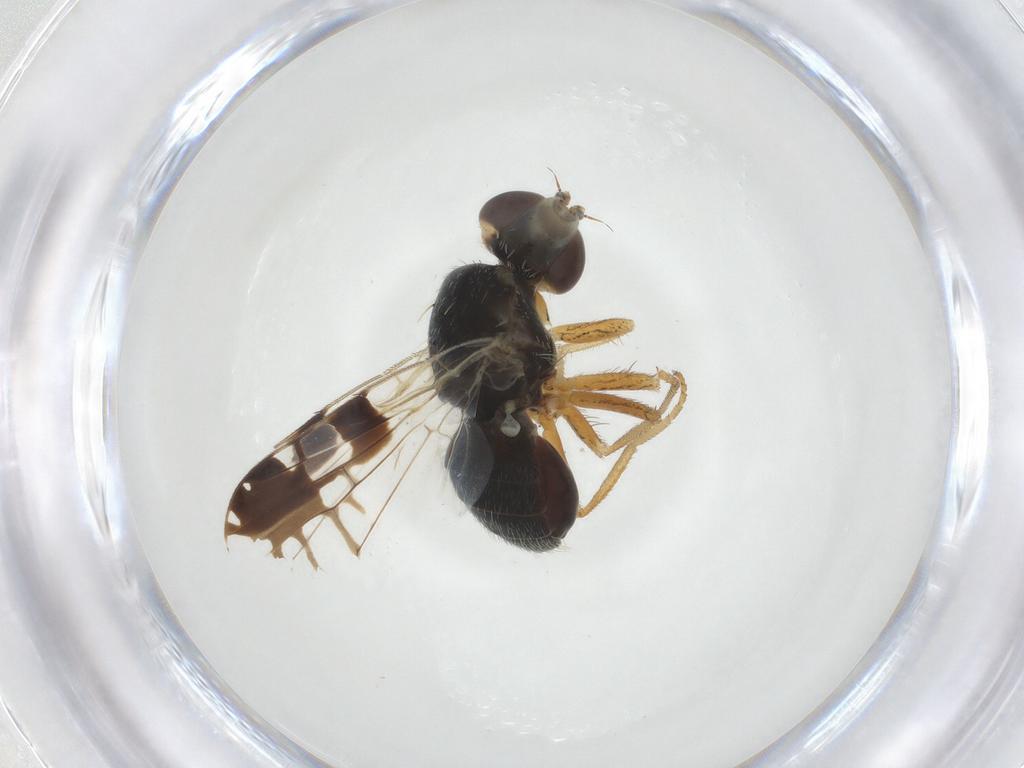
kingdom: Animalia
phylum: Arthropoda
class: Insecta
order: Diptera
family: Tephritidae
